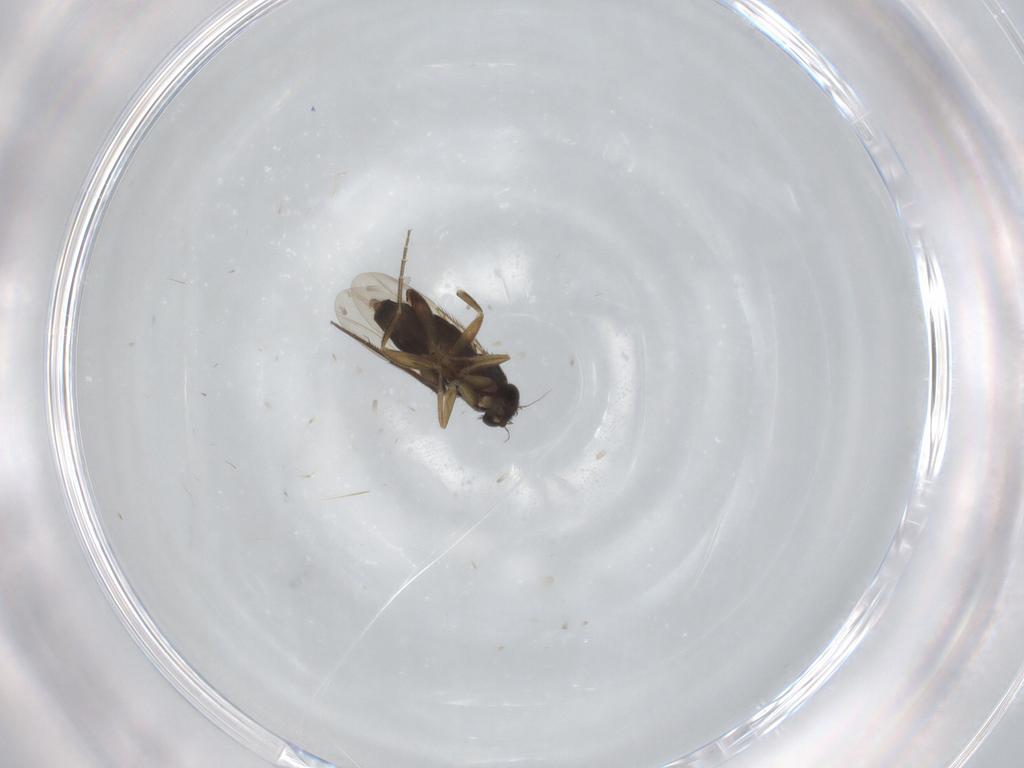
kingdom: Animalia
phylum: Arthropoda
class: Insecta
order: Diptera
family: Phoridae
